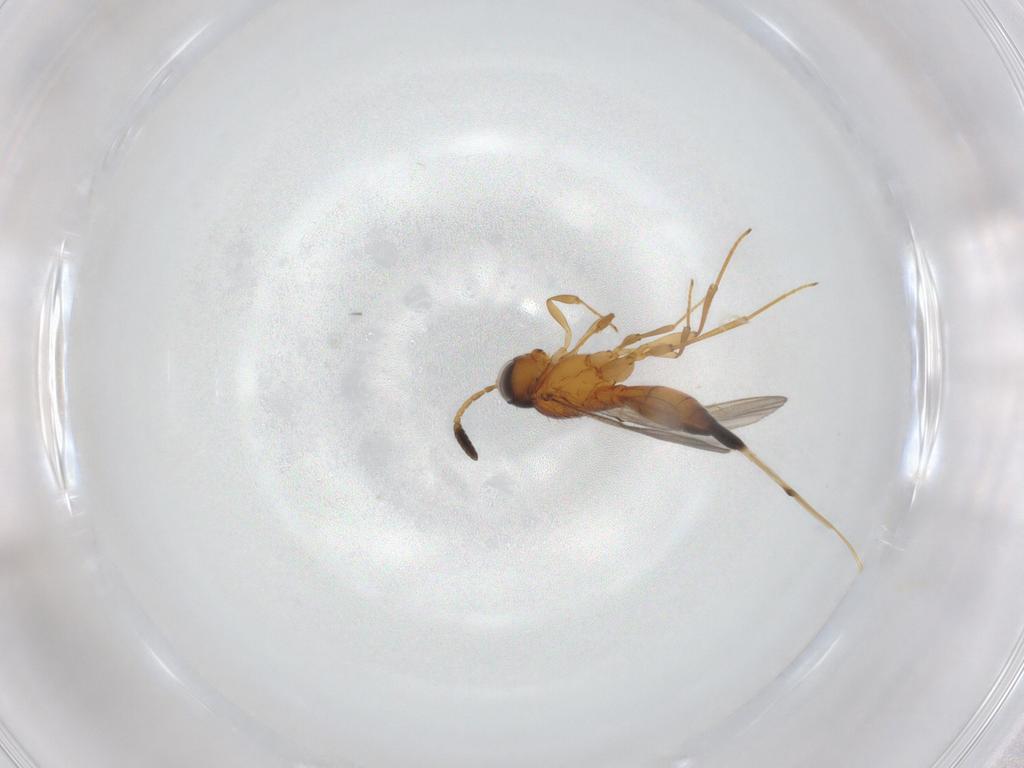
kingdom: Animalia
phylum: Arthropoda
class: Insecta
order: Hymenoptera
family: Scelionidae
